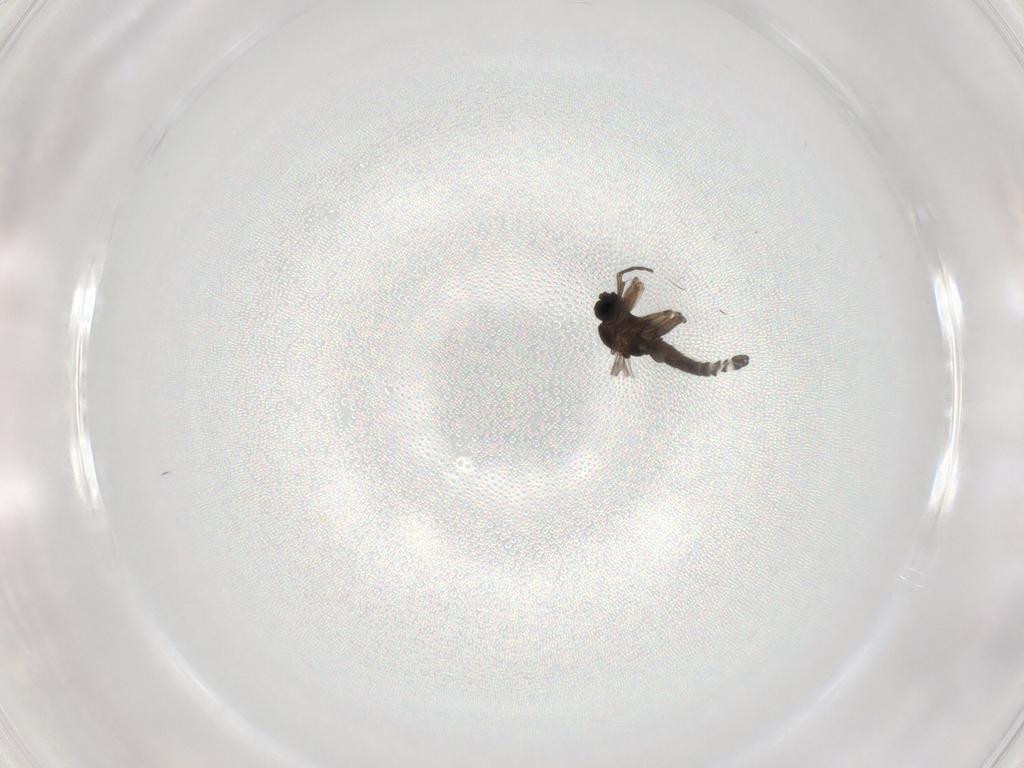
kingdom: Animalia
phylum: Arthropoda
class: Insecta
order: Diptera
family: Sciaridae
